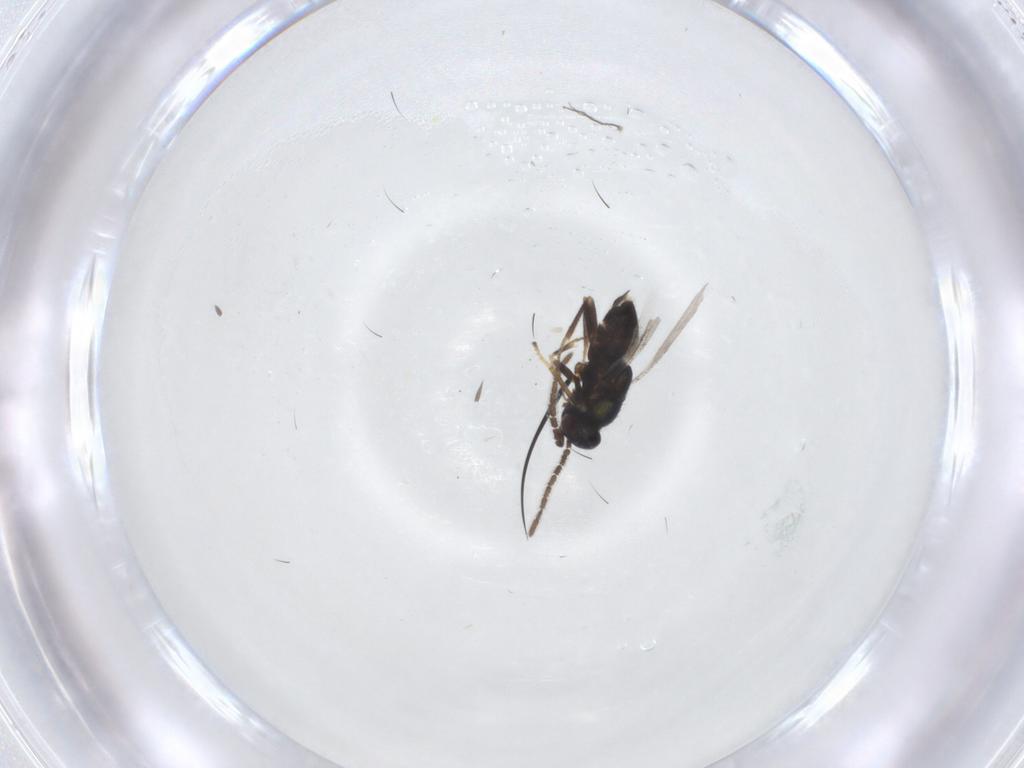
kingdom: Animalia
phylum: Arthropoda
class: Insecta
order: Hymenoptera
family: Encyrtidae
